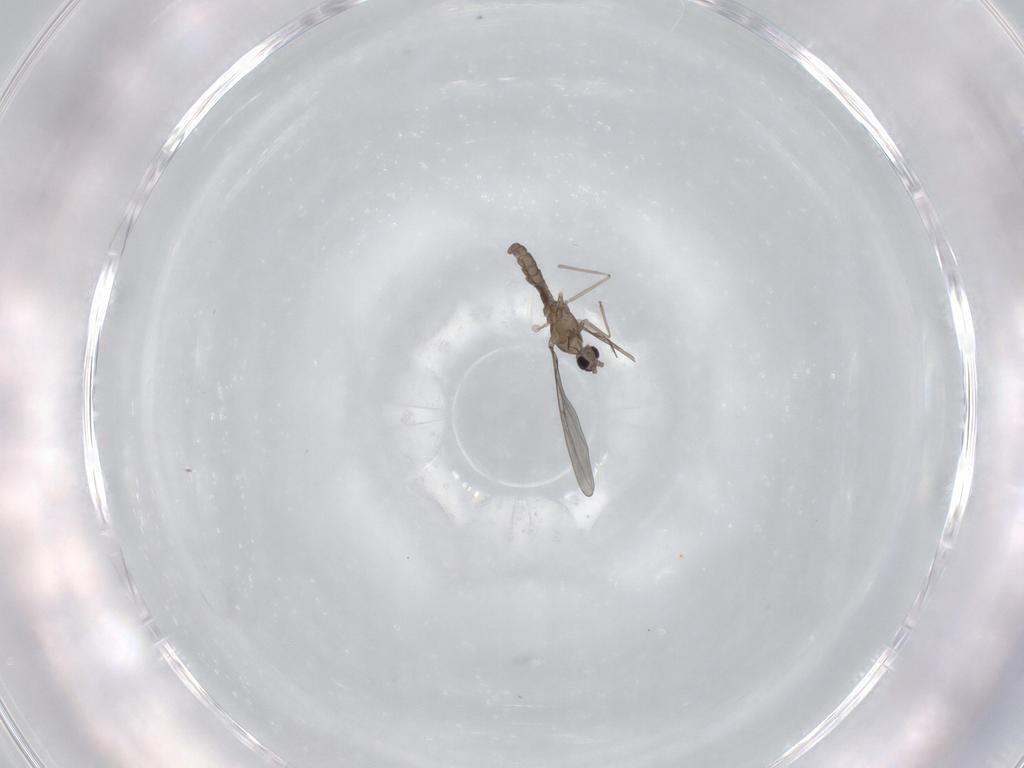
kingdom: Animalia
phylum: Arthropoda
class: Insecta
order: Diptera
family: Cecidomyiidae
